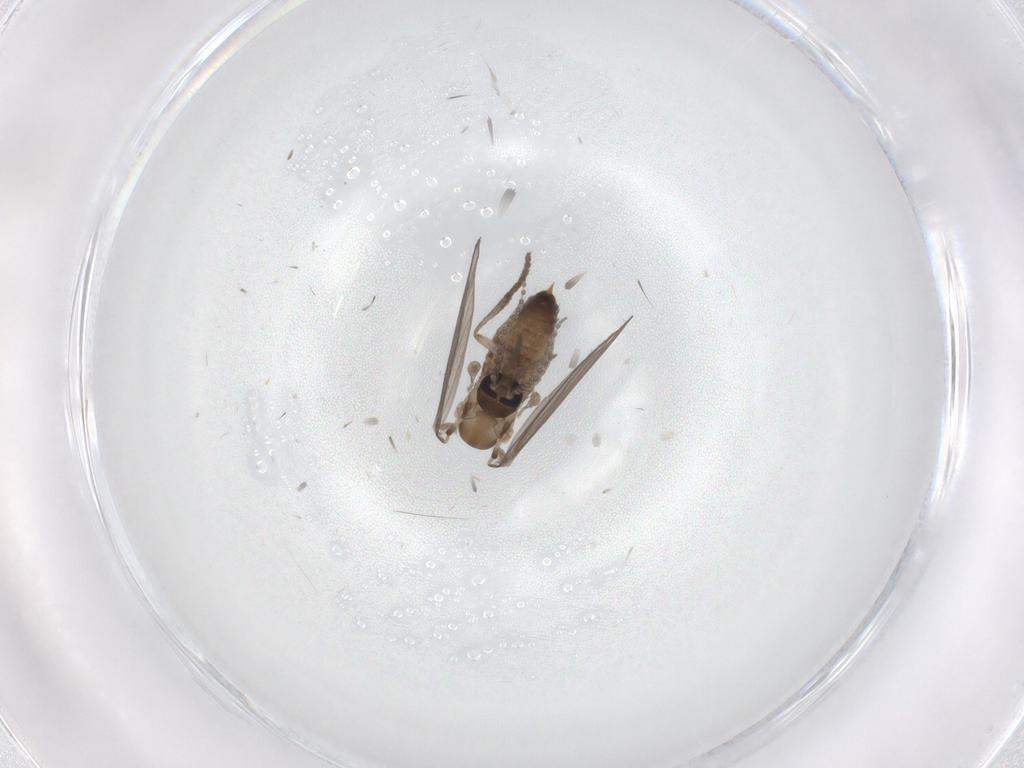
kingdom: Animalia
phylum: Arthropoda
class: Insecta
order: Diptera
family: Psychodidae
